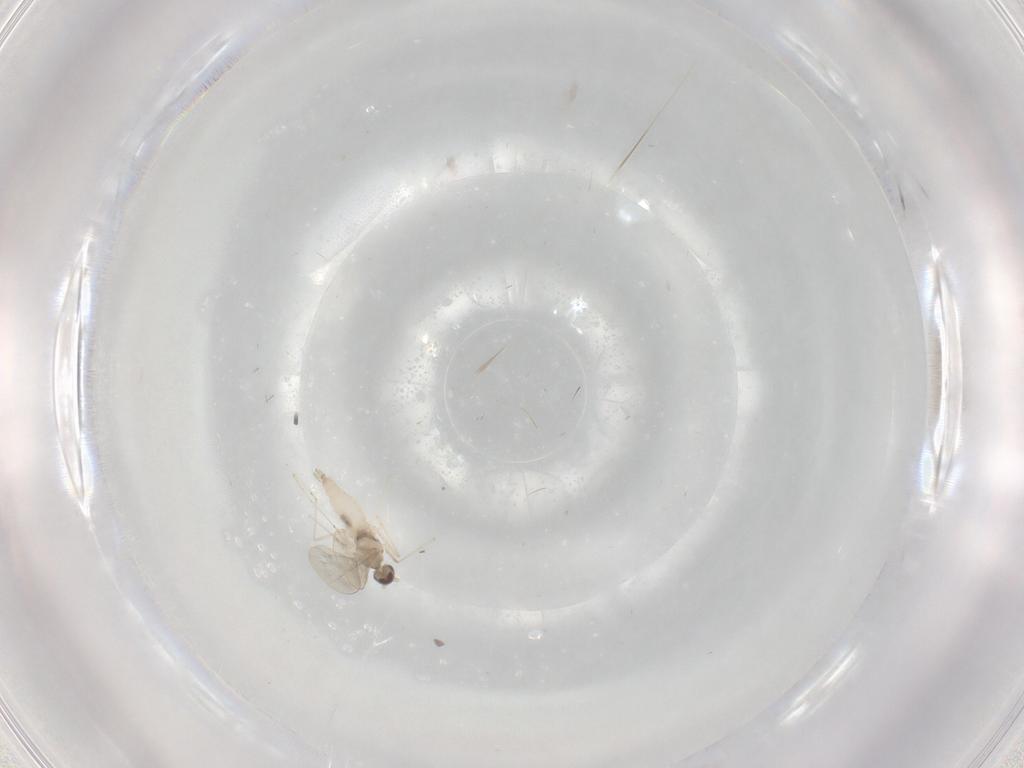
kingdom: Animalia
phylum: Arthropoda
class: Insecta
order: Diptera
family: Cecidomyiidae
